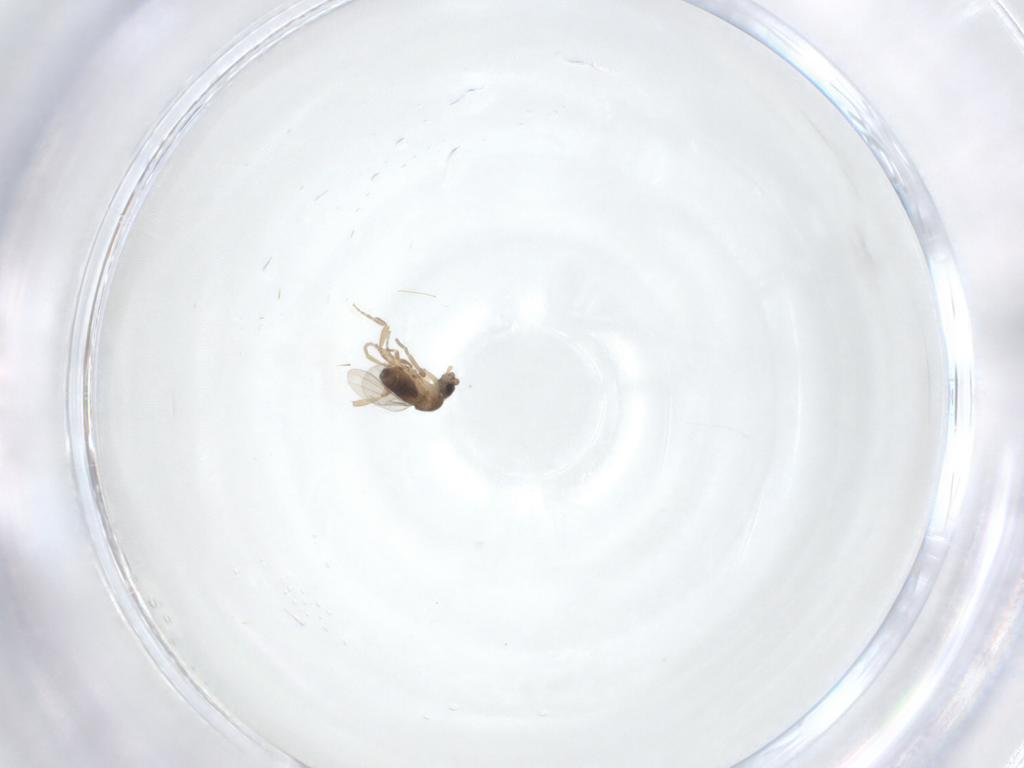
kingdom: Animalia
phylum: Arthropoda
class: Insecta
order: Diptera
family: Phoridae
